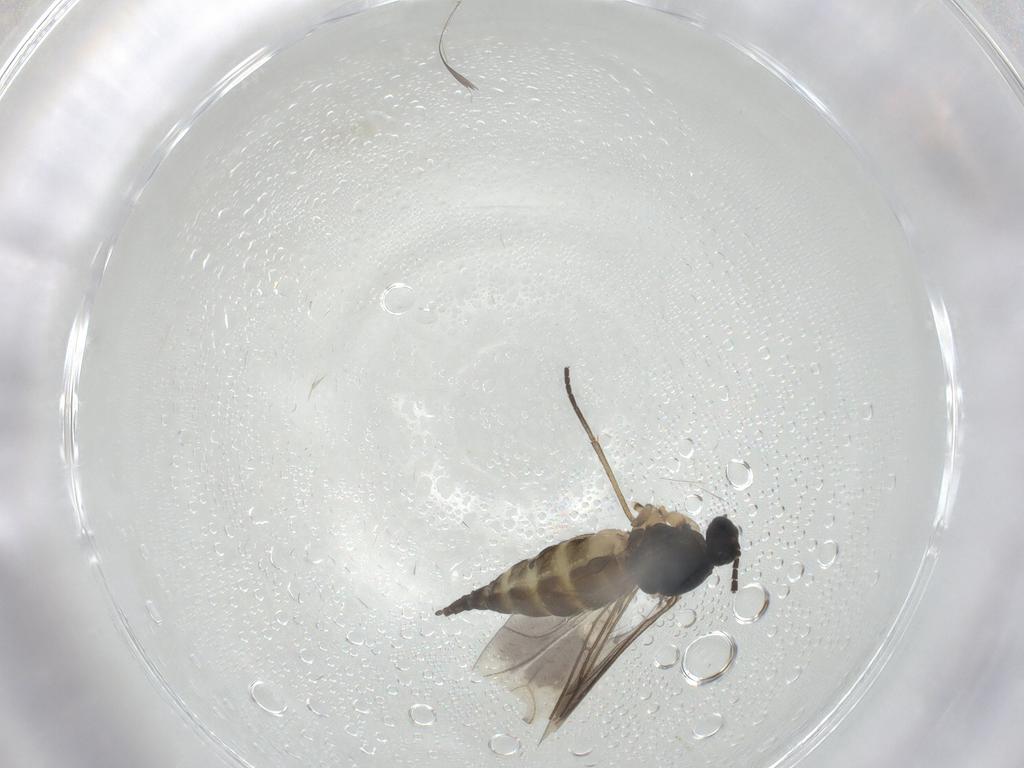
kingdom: Animalia
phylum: Arthropoda
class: Insecta
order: Diptera
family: Sciaridae
